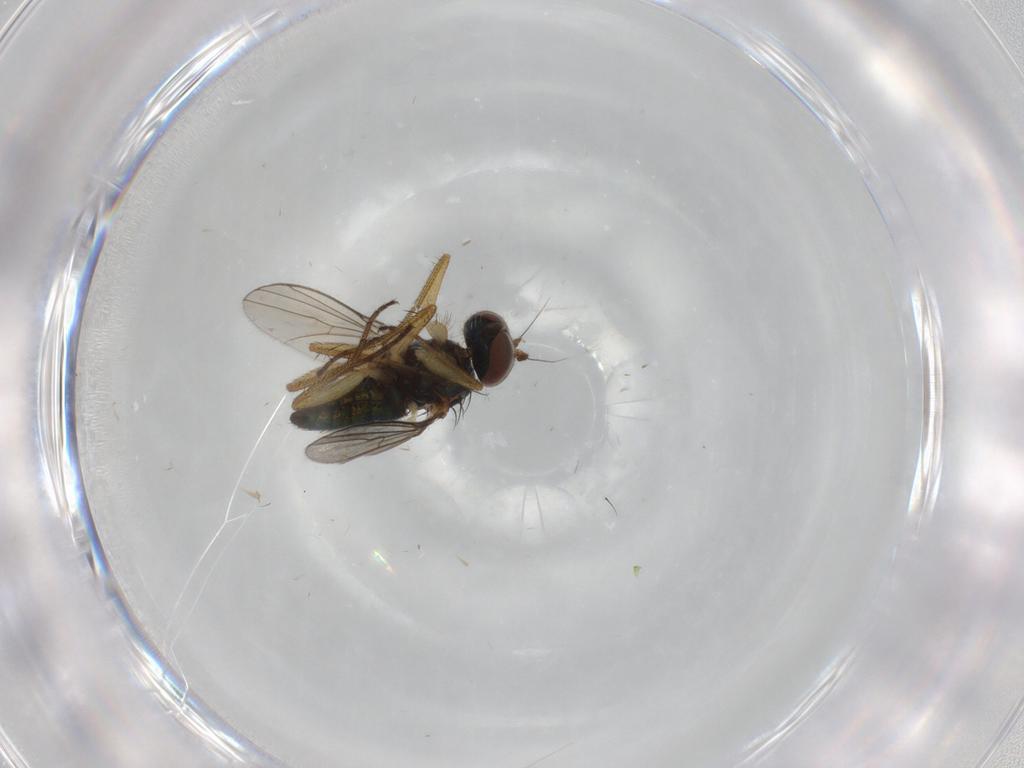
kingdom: Animalia
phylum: Arthropoda
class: Insecta
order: Diptera
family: Dolichopodidae
